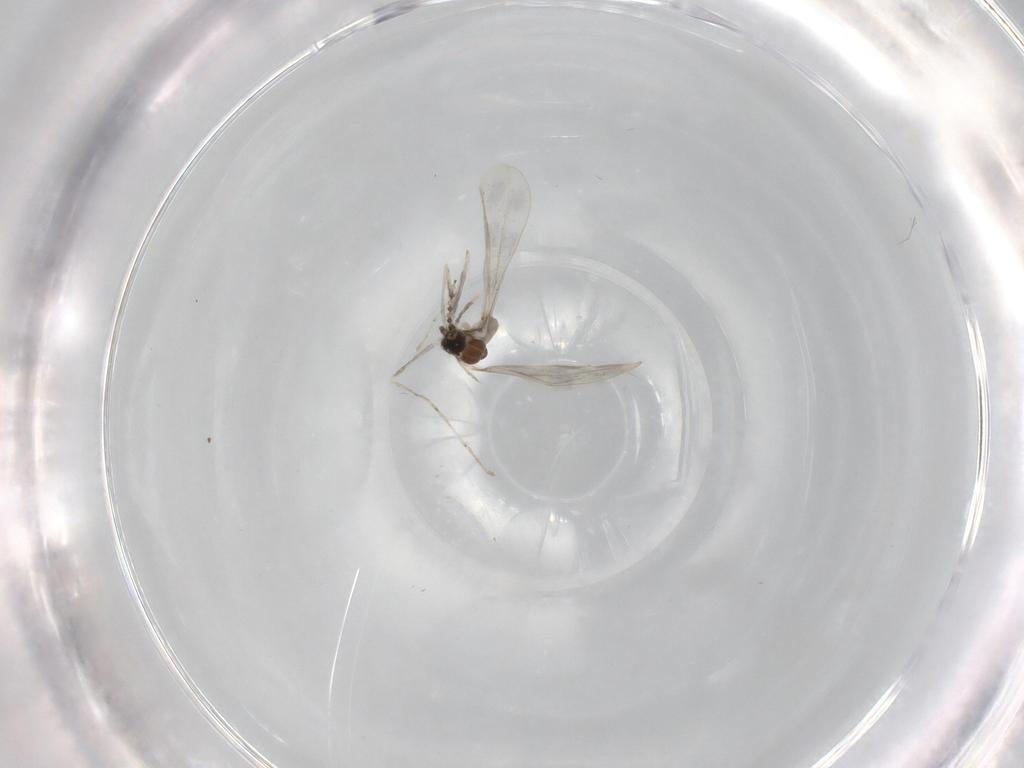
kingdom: Animalia
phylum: Arthropoda
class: Insecta
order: Diptera
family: Cecidomyiidae
